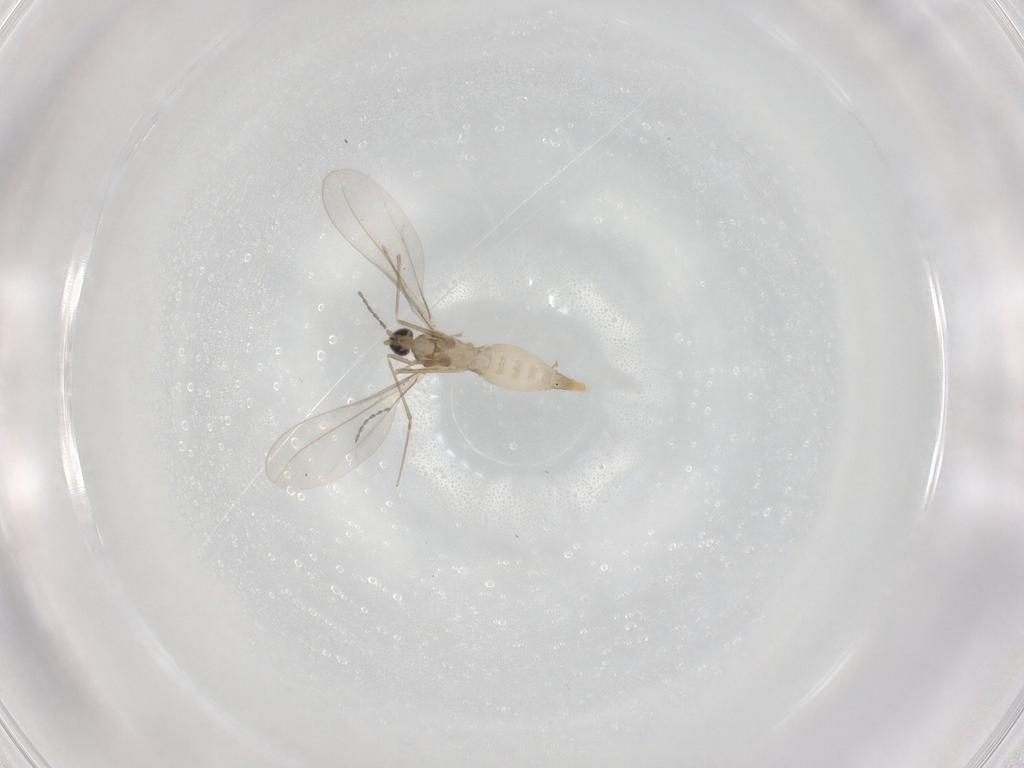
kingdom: Animalia
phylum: Arthropoda
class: Insecta
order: Diptera
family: Cecidomyiidae
